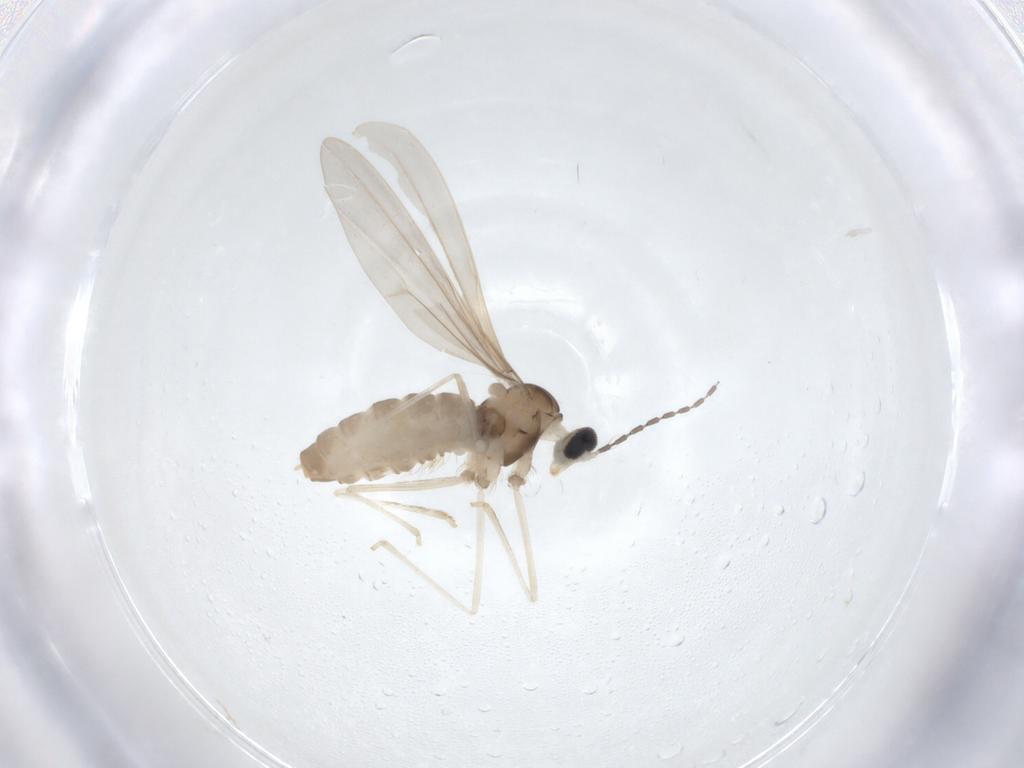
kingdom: Animalia
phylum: Arthropoda
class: Insecta
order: Diptera
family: Cecidomyiidae
